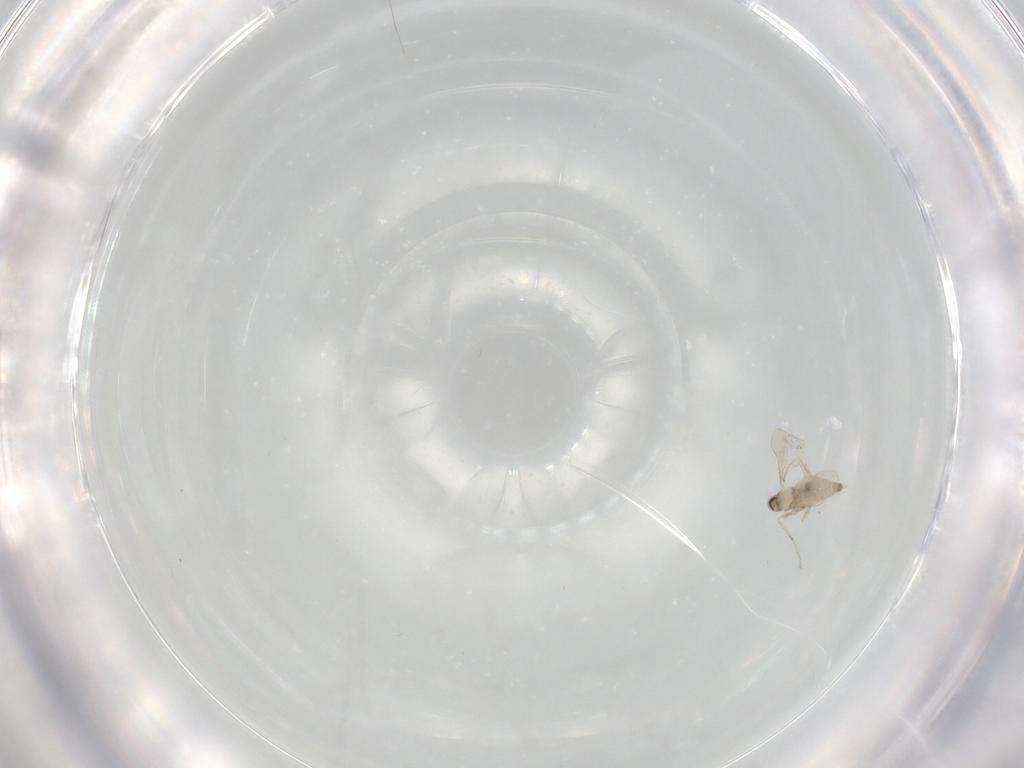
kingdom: Animalia
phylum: Arthropoda
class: Insecta
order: Diptera
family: Cecidomyiidae
